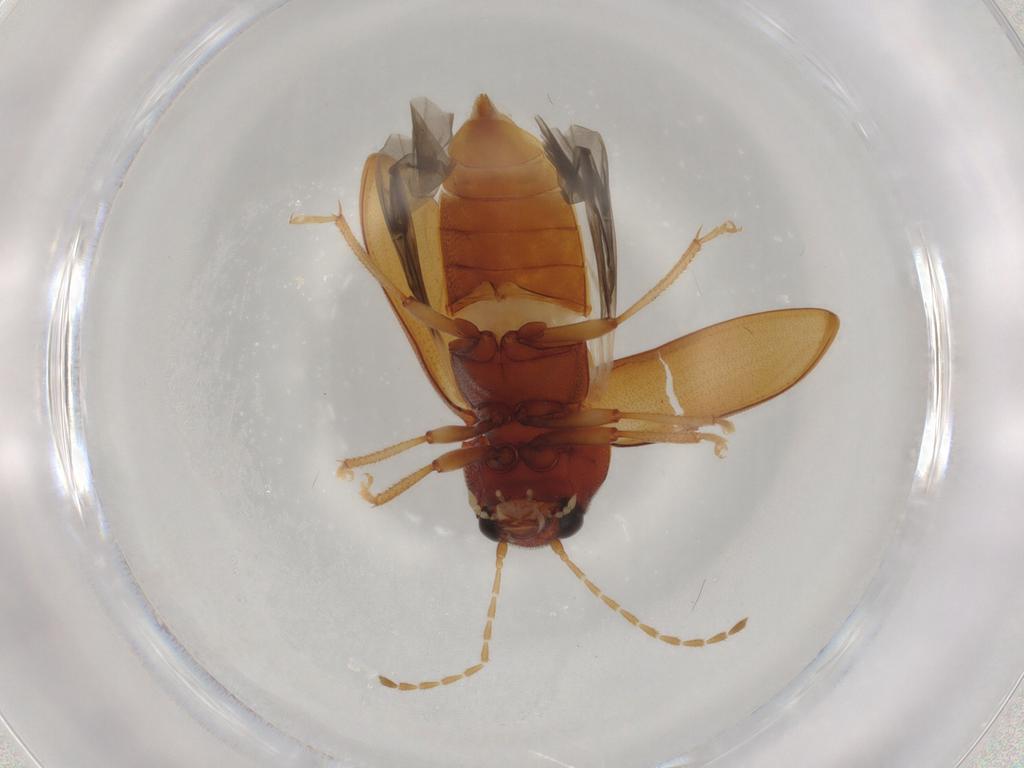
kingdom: Animalia
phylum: Arthropoda
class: Insecta
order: Coleoptera
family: Ptilodactylidae
